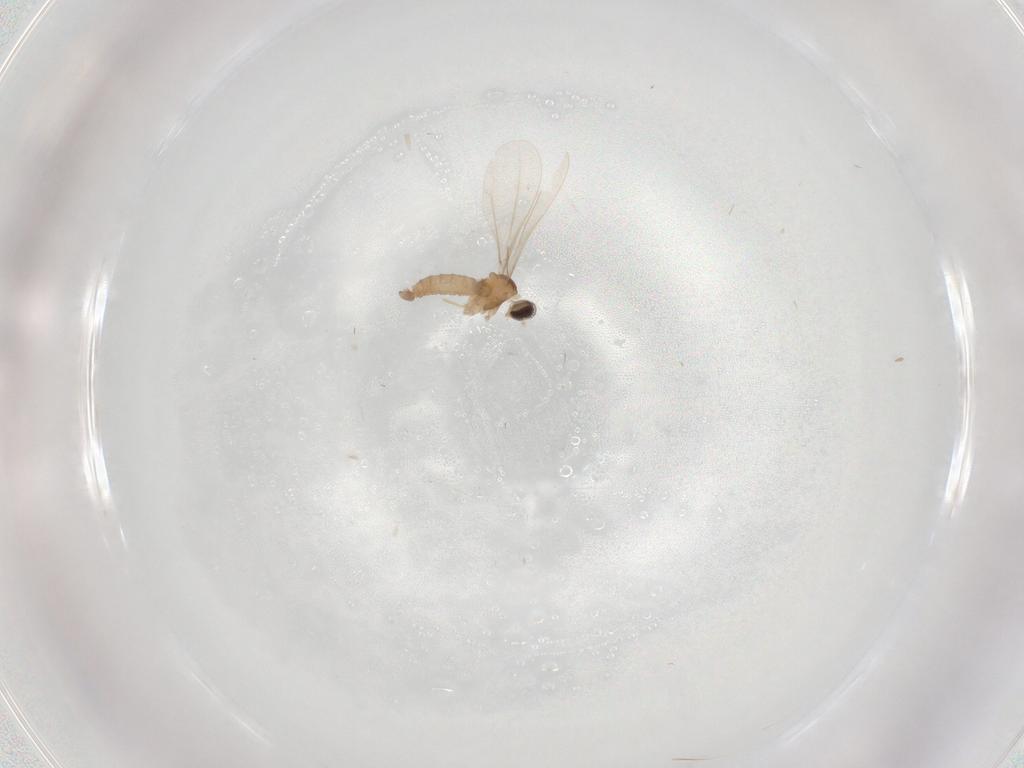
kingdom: Animalia
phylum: Arthropoda
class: Insecta
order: Diptera
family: Cecidomyiidae
